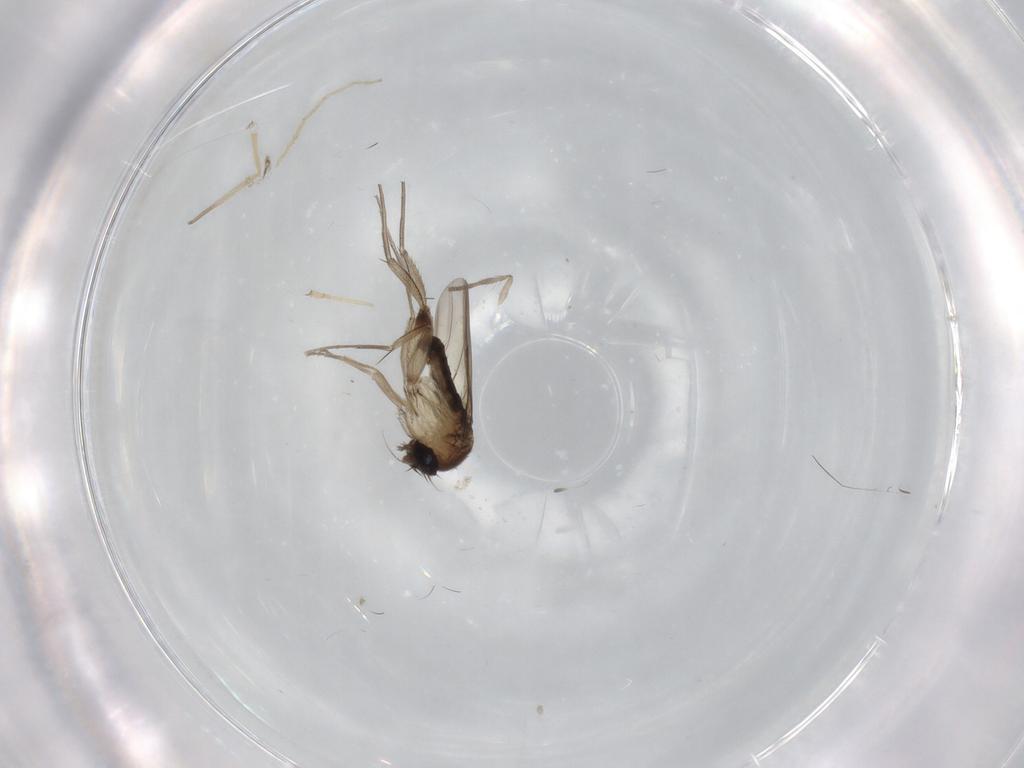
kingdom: Animalia
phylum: Arthropoda
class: Insecta
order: Diptera
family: Phoridae
